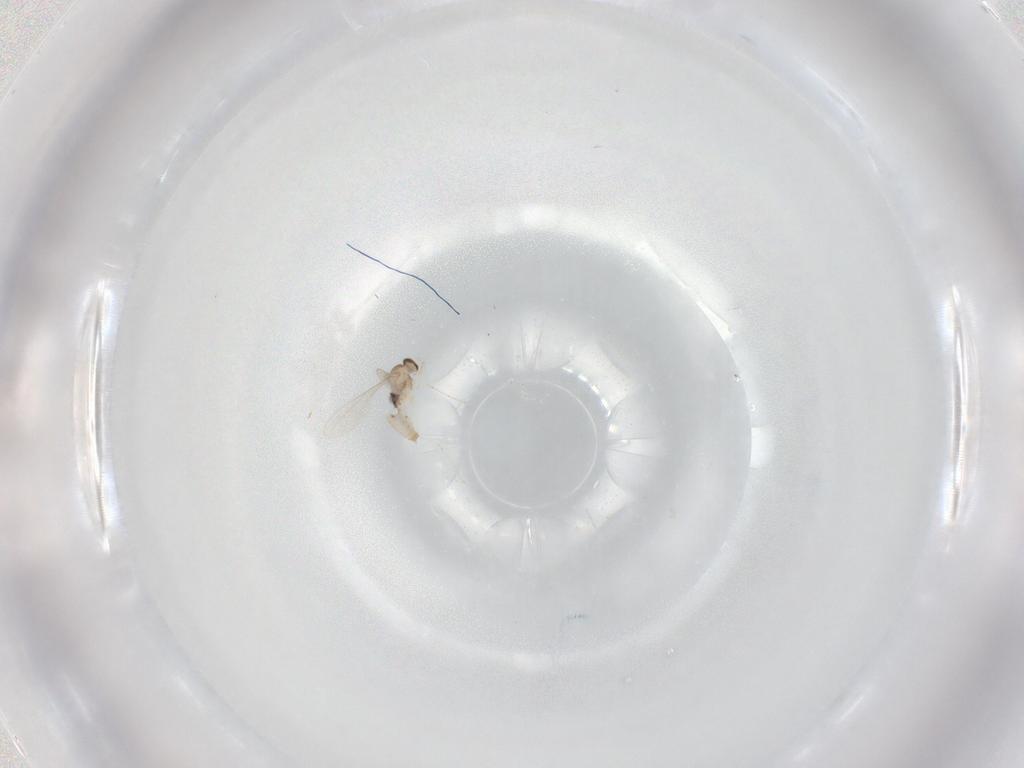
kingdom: Animalia
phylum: Arthropoda
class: Insecta
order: Diptera
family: Cecidomyiidae
